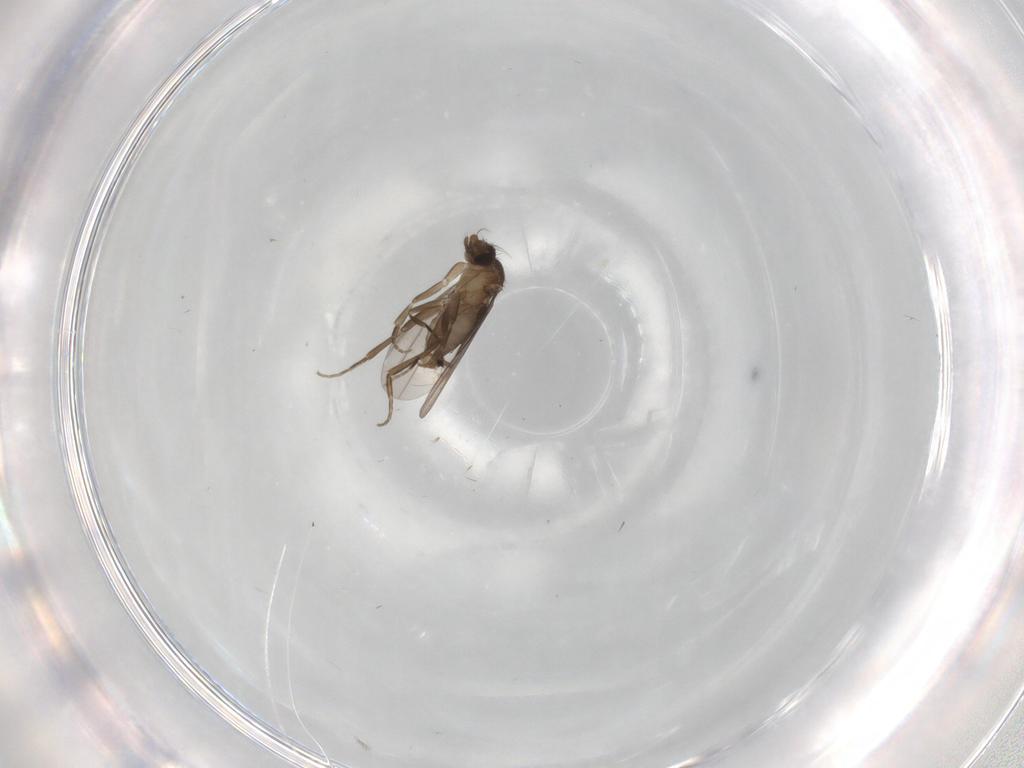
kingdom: Animalia
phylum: Arthropoda
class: Insecta
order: Diptera
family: Phoridae
